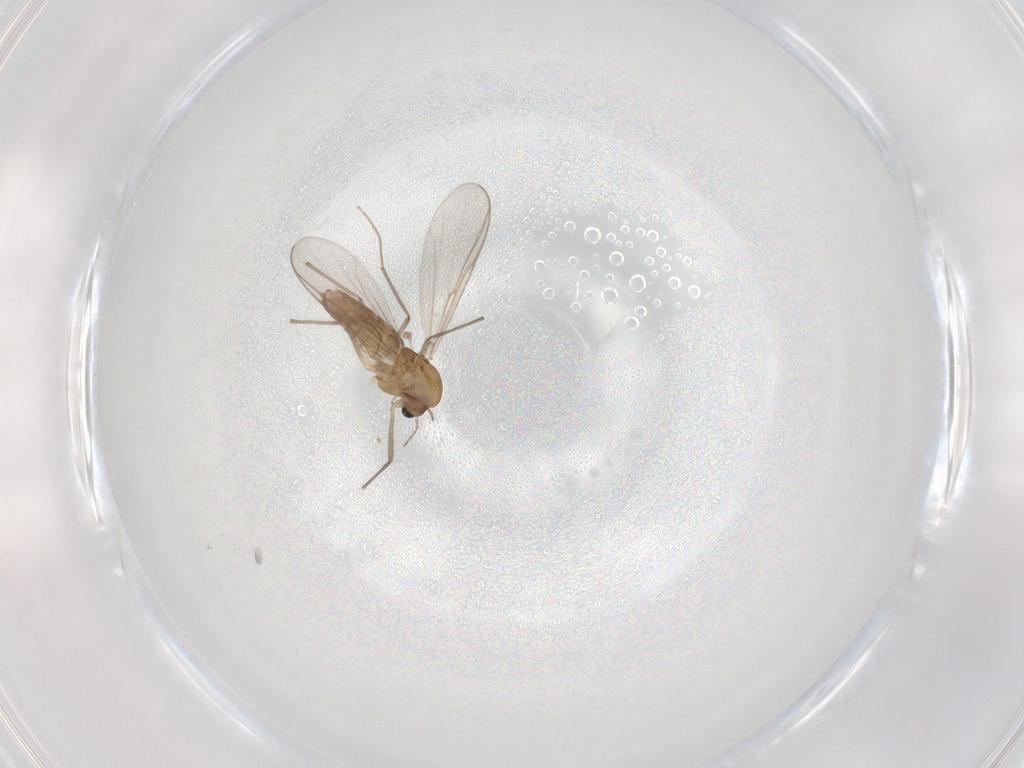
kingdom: Animalia
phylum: Arthropoda
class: Insecta
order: Diptera
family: Chironomidae
